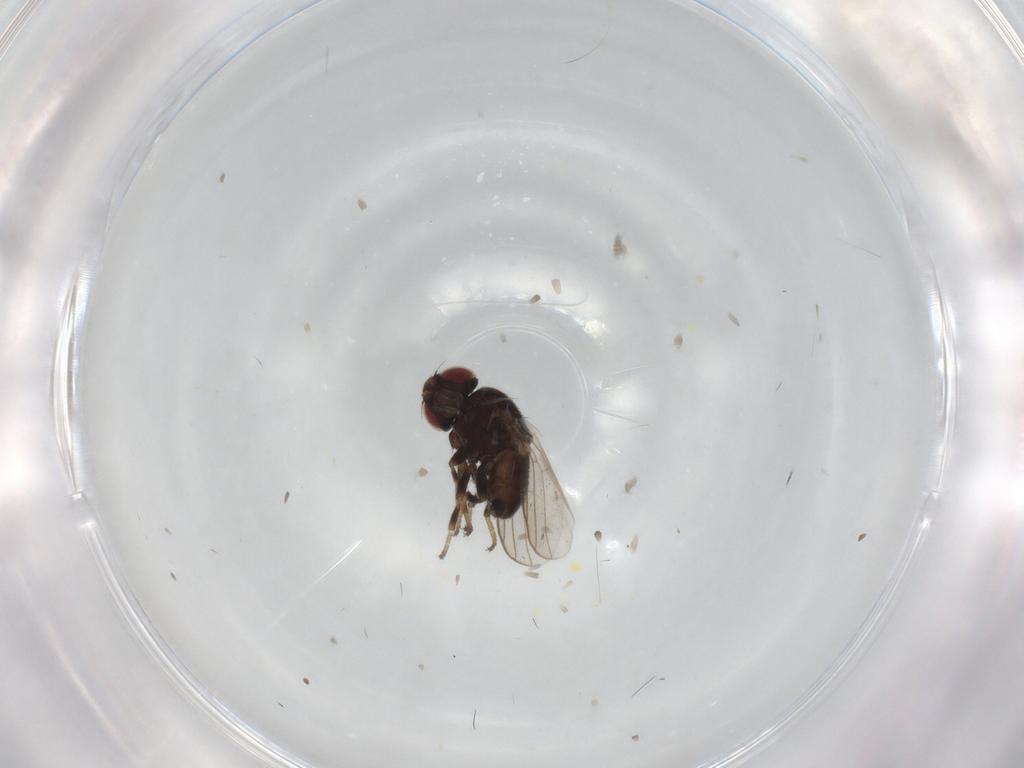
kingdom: Animalia
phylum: Arthropoda
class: Insecta
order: Diptera
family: Chloropidae
